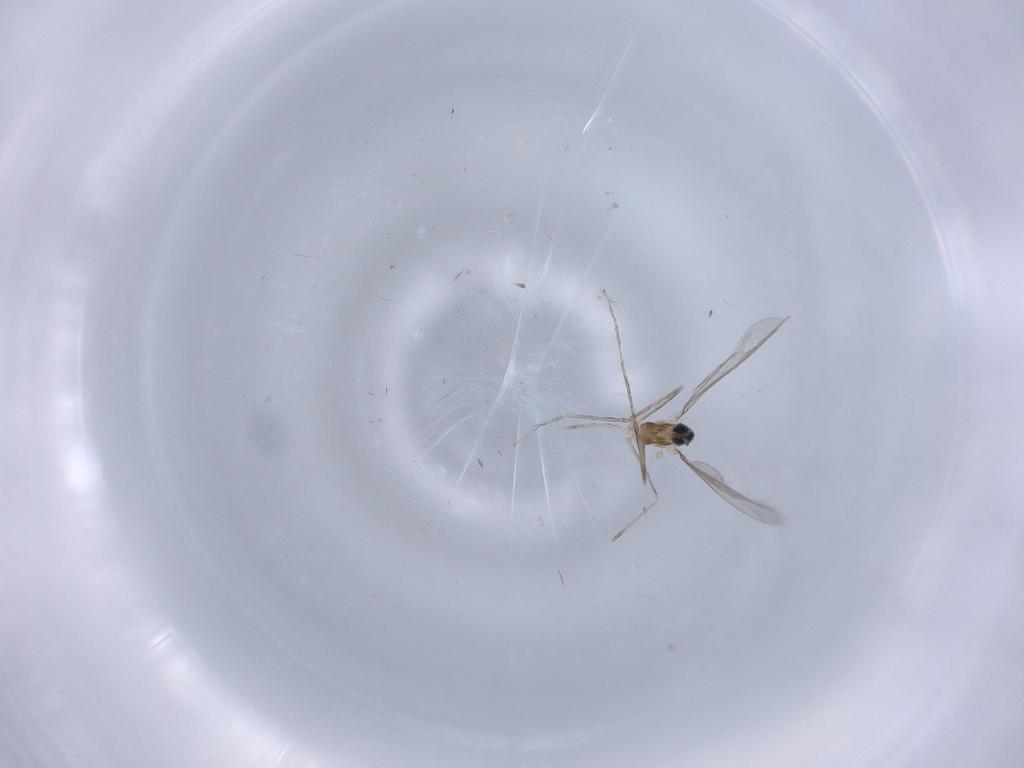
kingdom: Animalia
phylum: Arthropoda
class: Insecta
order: Diptera
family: Cecidomyiidae
